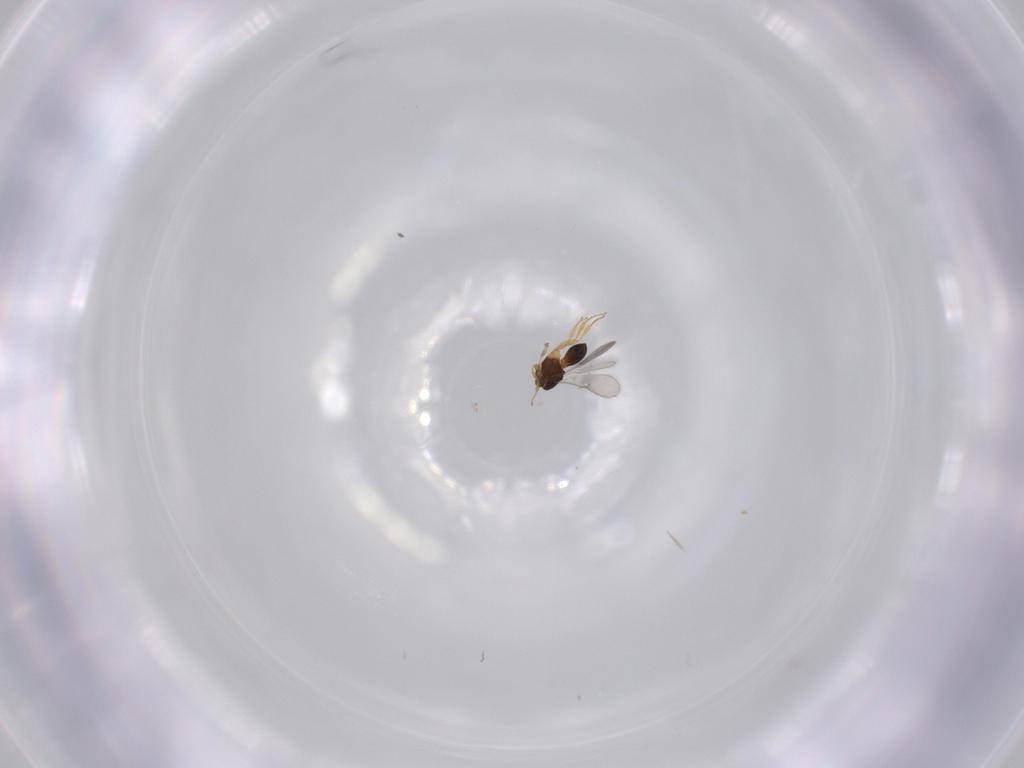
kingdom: Animalia
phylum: Arthropoda
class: Insecta
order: Hymenoptera
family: Scelionidae
